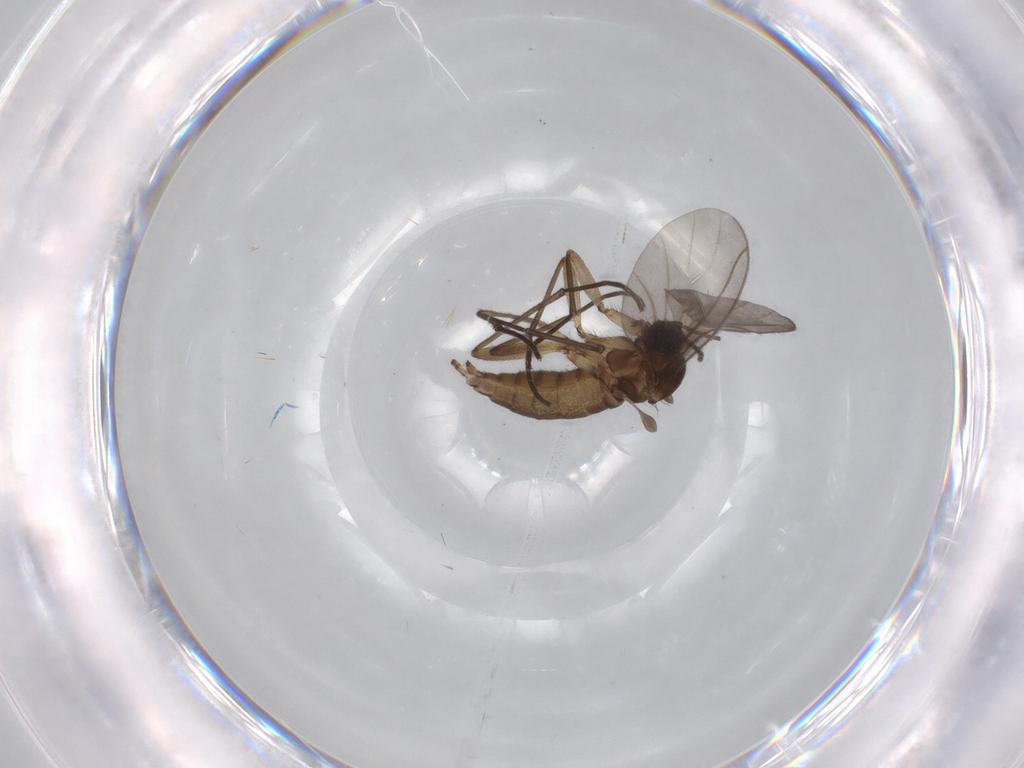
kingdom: Animalia
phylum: Arthropoda
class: Insecta
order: Diptera
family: Sciaridae
